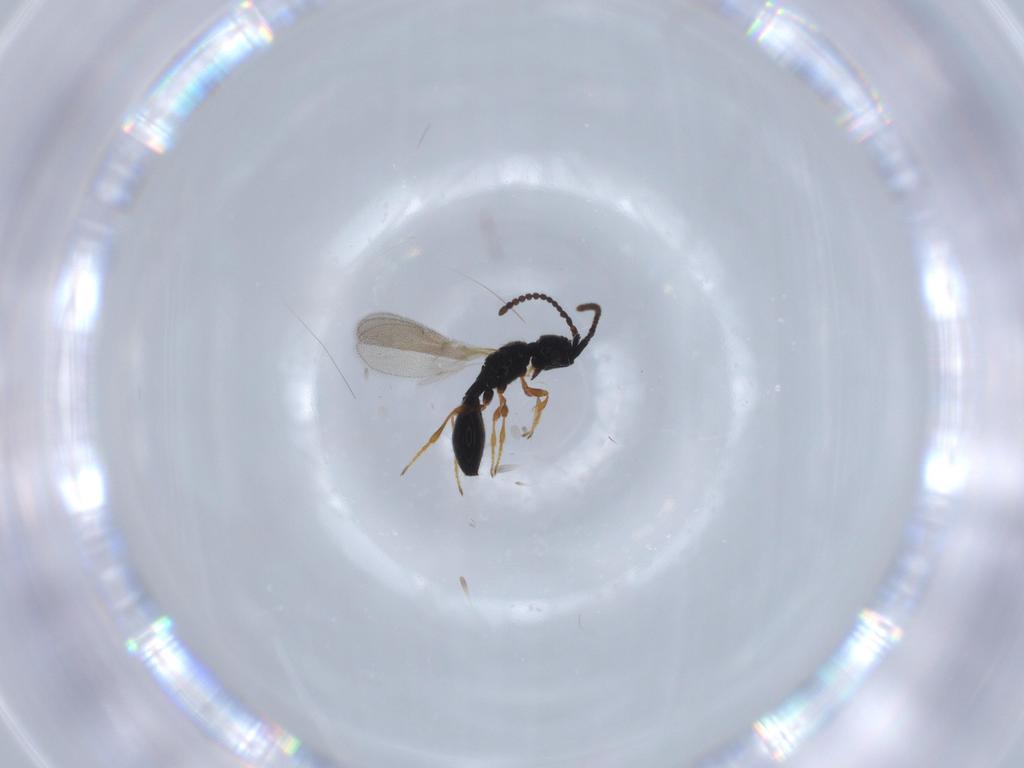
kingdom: Animalia
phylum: Arthropoda
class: Insecta
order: Hymenoptera
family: Diapriidae
